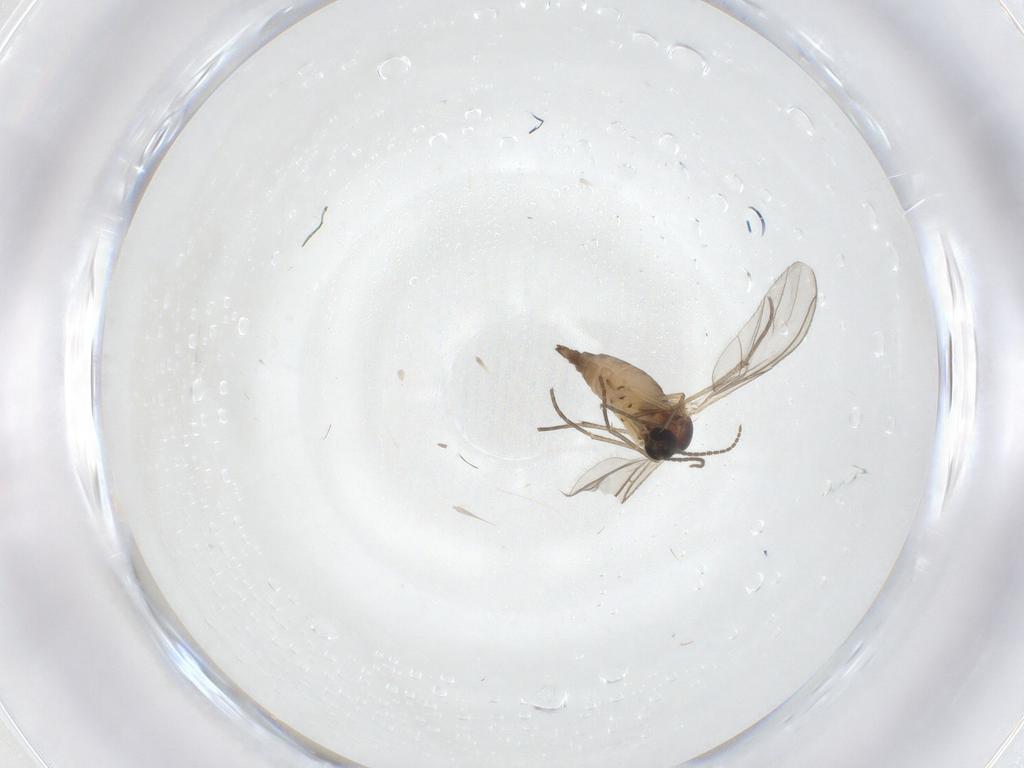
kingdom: Animalia
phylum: Arthropoda
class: Insecta
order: Diptera
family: Sciaridae
